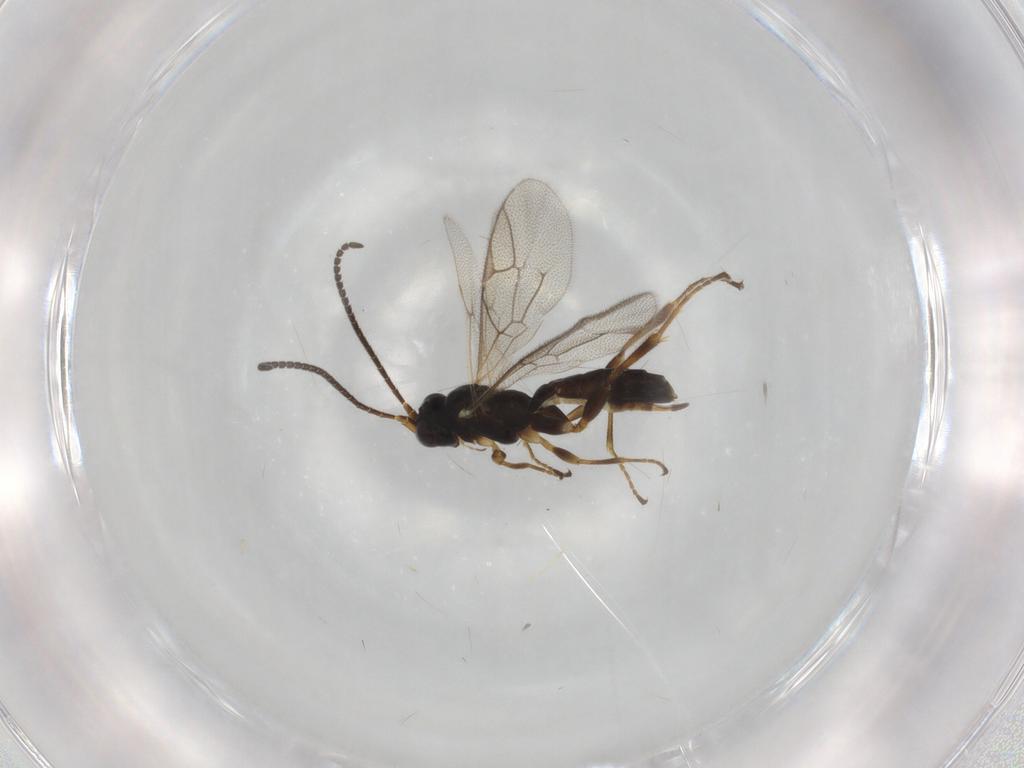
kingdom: Animalia
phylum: Arthropoda
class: Insecta
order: Hymenoptera
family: Ichneumonidae
